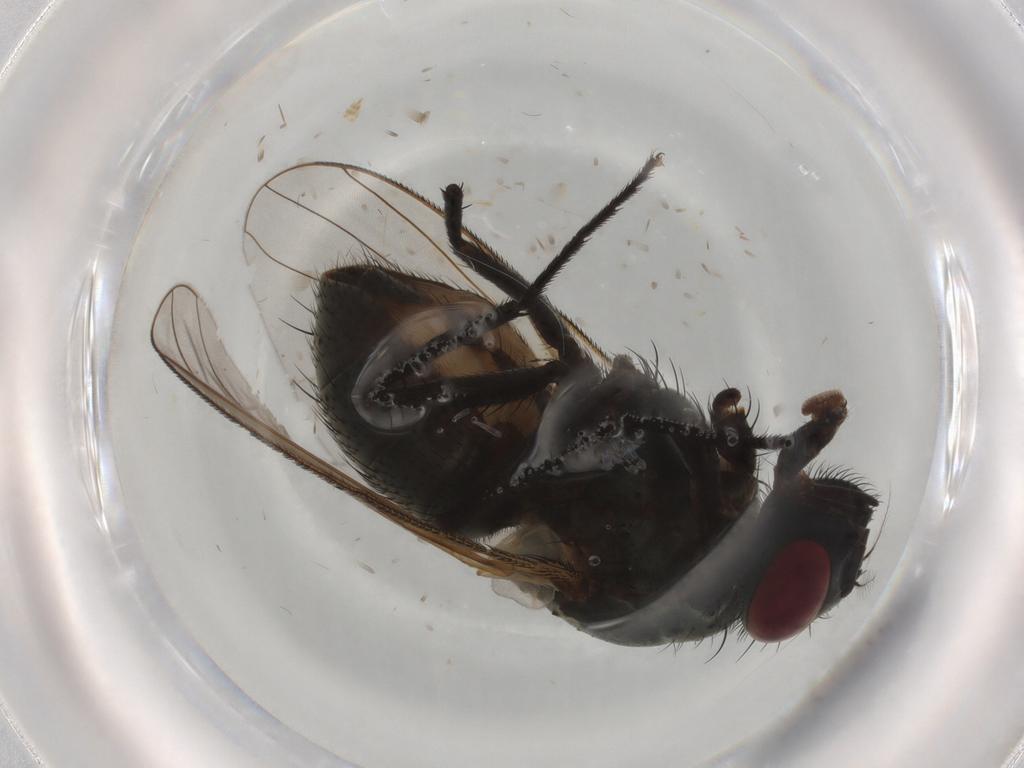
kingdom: Animalia
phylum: Arthropoda
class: Insecta
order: Diptera
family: Muscidae
